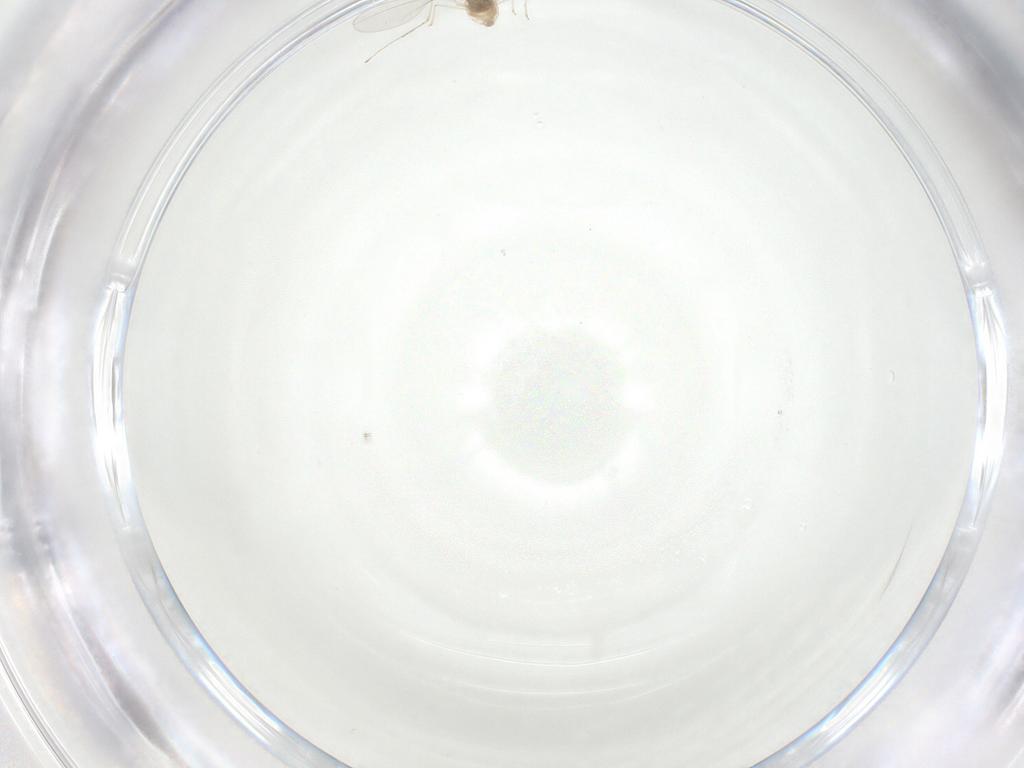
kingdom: Animalia
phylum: Arthropoda
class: Insecta
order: Diptera
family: Cecidomyiidae
